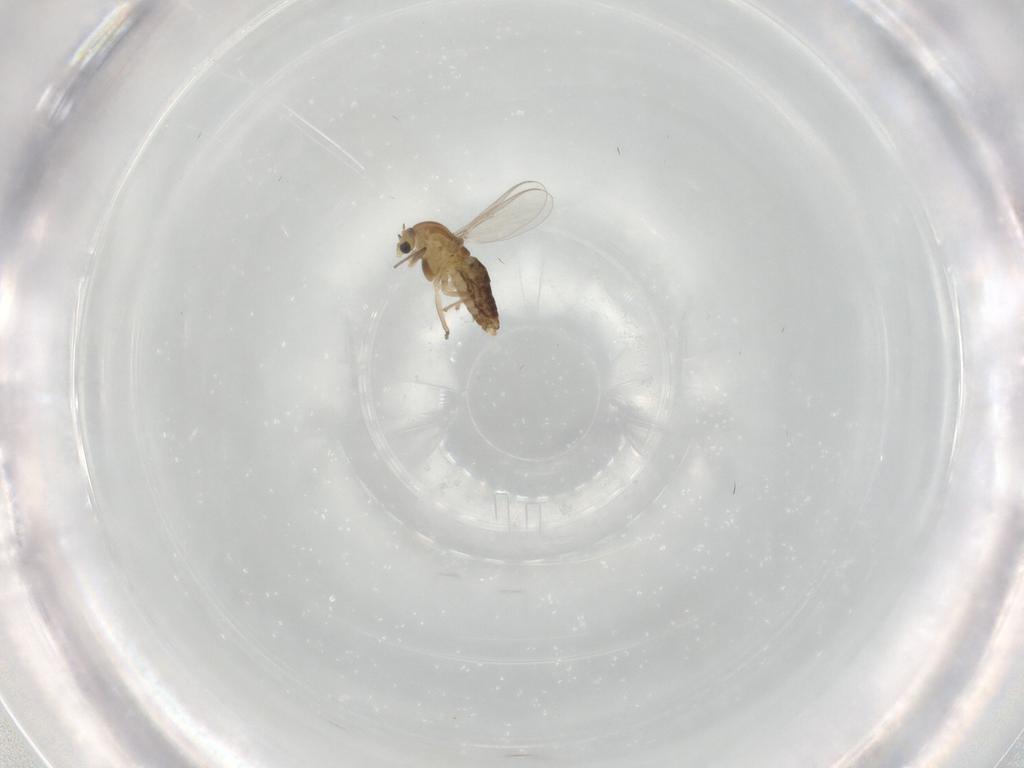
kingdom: Animalia
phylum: Arthropoda
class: Insecta
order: Diptera
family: Chironomidae
